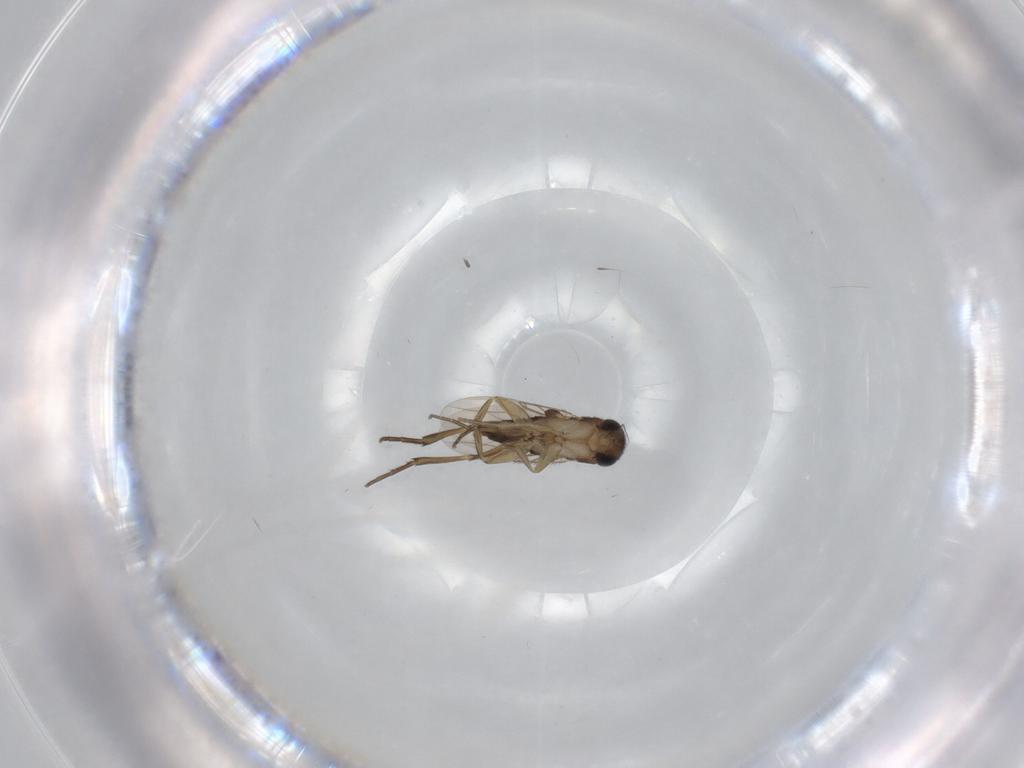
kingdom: Animalia
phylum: Arthropoda
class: Insecta
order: Diptera
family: Phoridae
